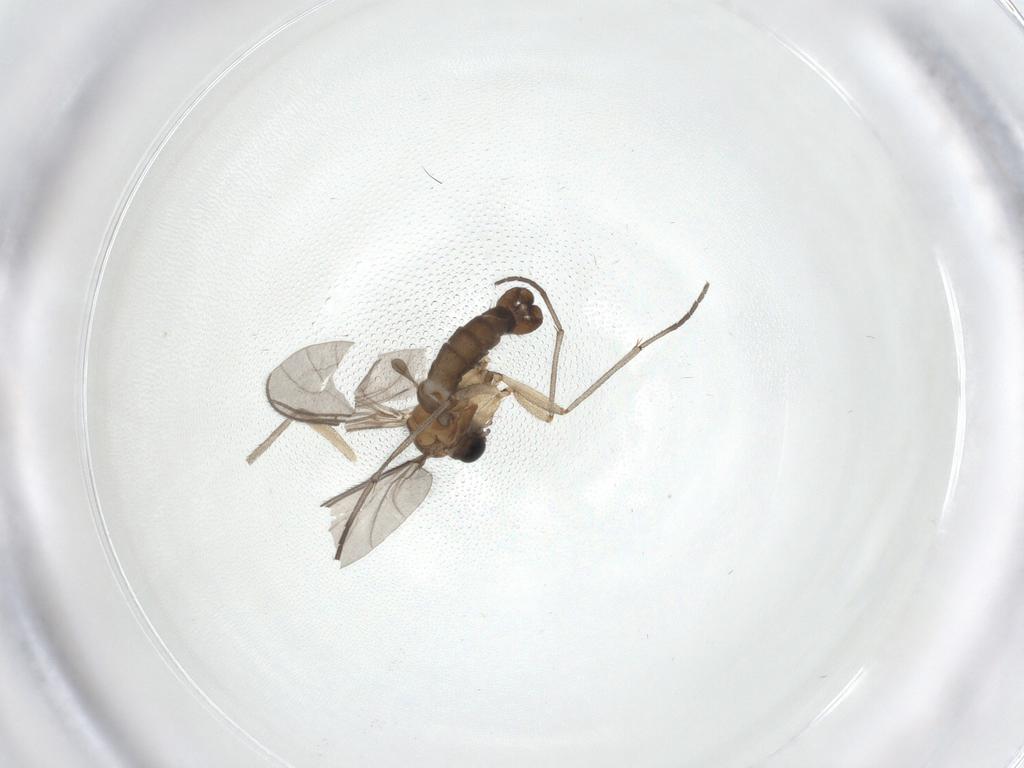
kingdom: Animalia
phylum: Arthropoda
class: Insecta
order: Diptera
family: Sciaridae
